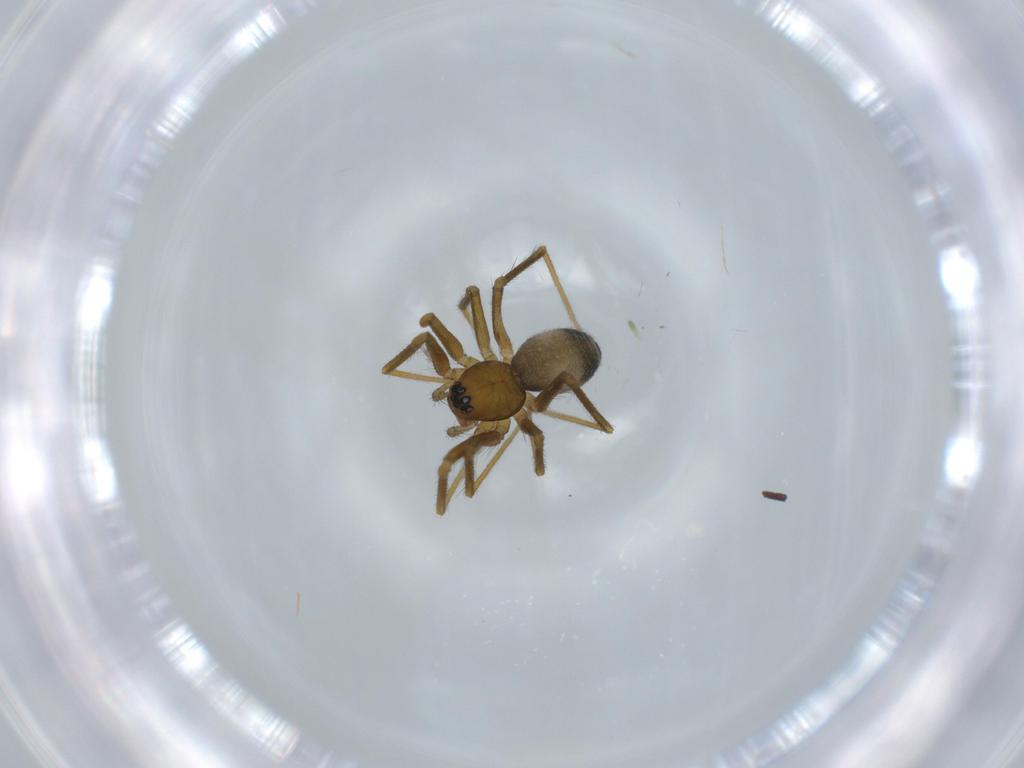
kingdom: Animalia
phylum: Arthropoda
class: Arachnida
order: Araneae
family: Linyphiidae
